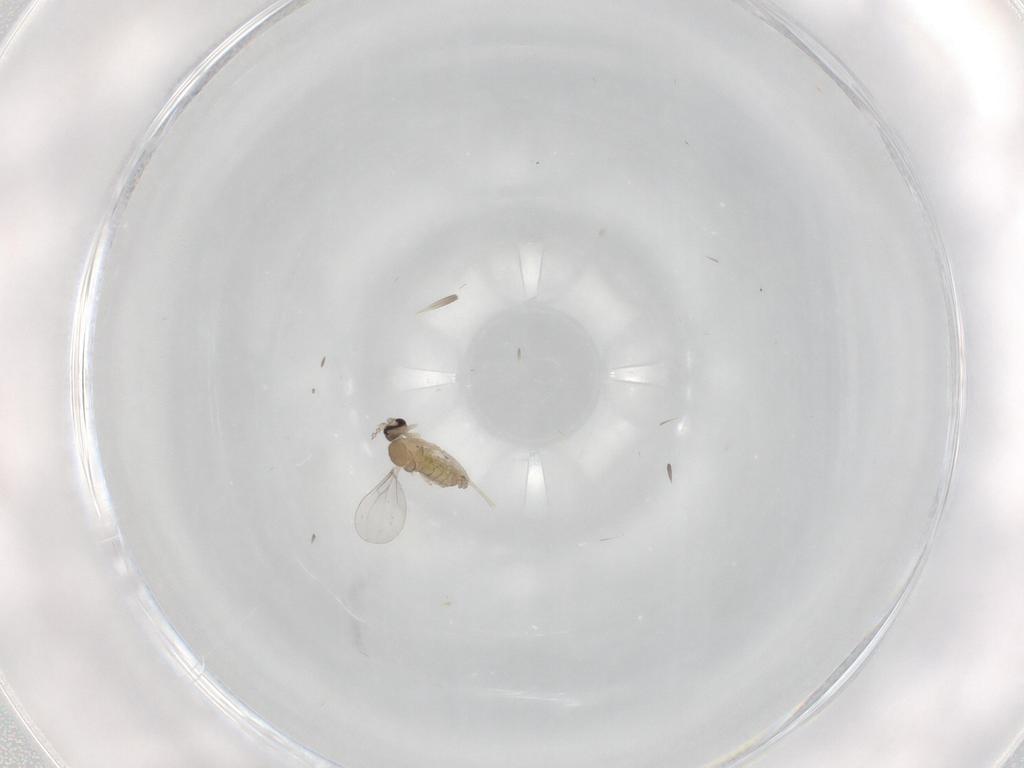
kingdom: Animalia
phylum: Arthropoda
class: Insecta
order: Diptera
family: Cecidomyiidae
